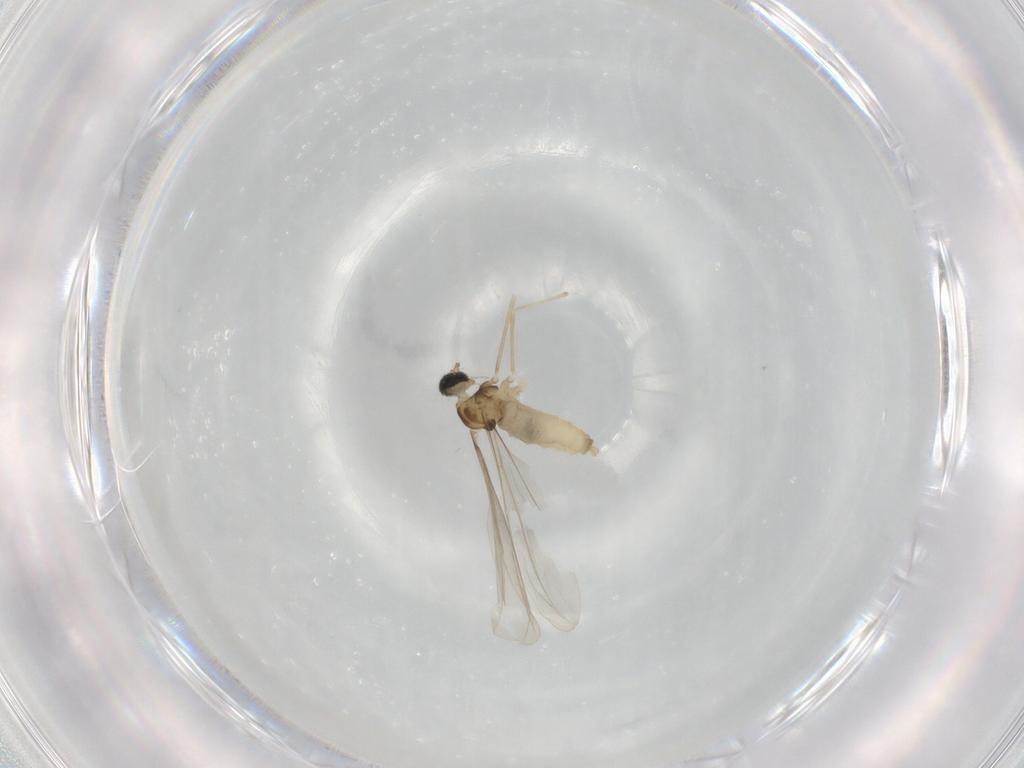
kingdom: Animalia
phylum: Arthropoda
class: Insecta
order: Diptera
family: Cecidomyiidae
